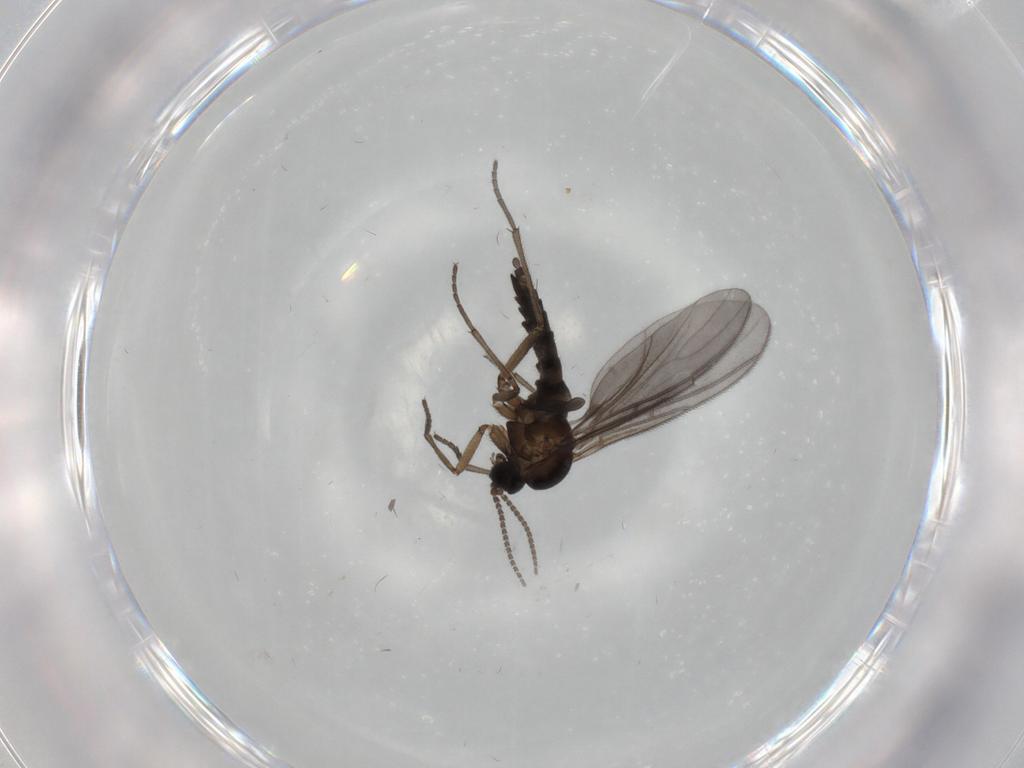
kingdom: Animalia
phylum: Arthropoda
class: Insecta
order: Diptera
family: Sciaridae
